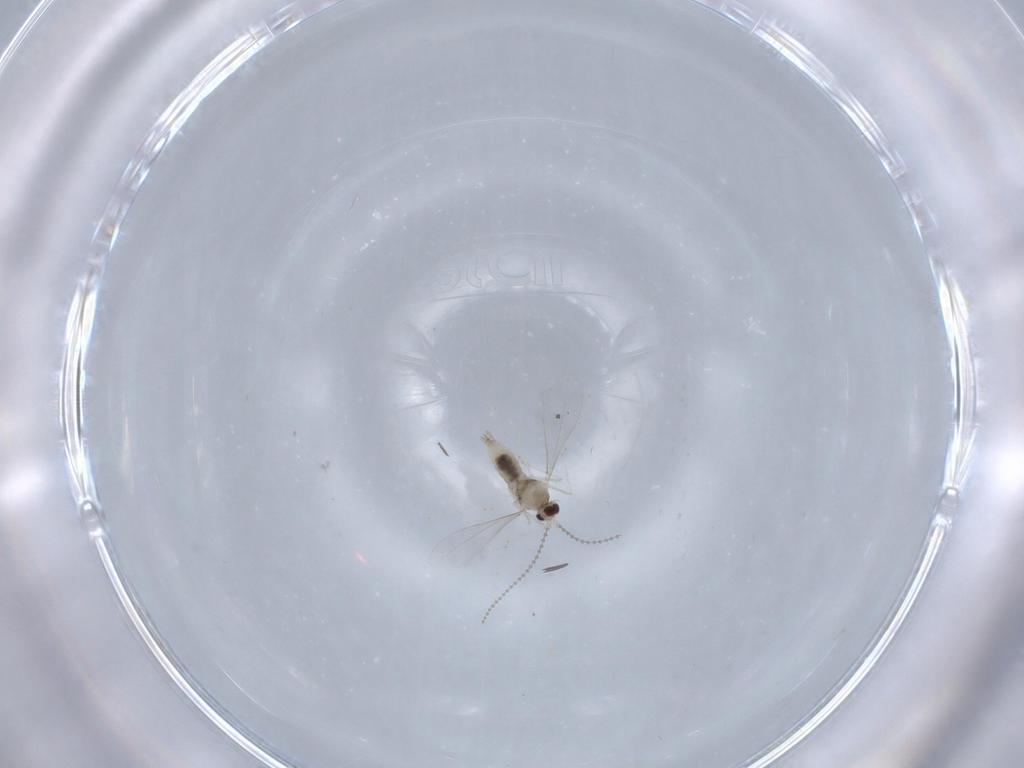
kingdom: Animalia
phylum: Arthropoda
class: Insecta
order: Diptera
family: Cecidomyiidae
